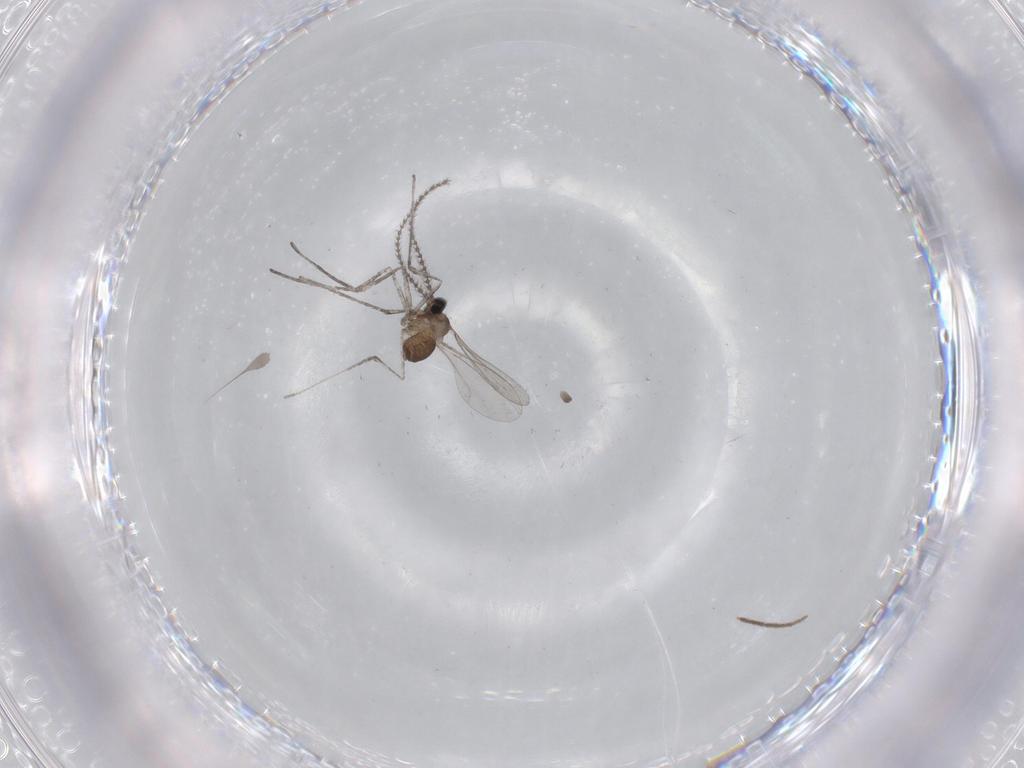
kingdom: Animalia
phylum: Arthropoda
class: Insecta
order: Diptera
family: Cecidomyiidae
